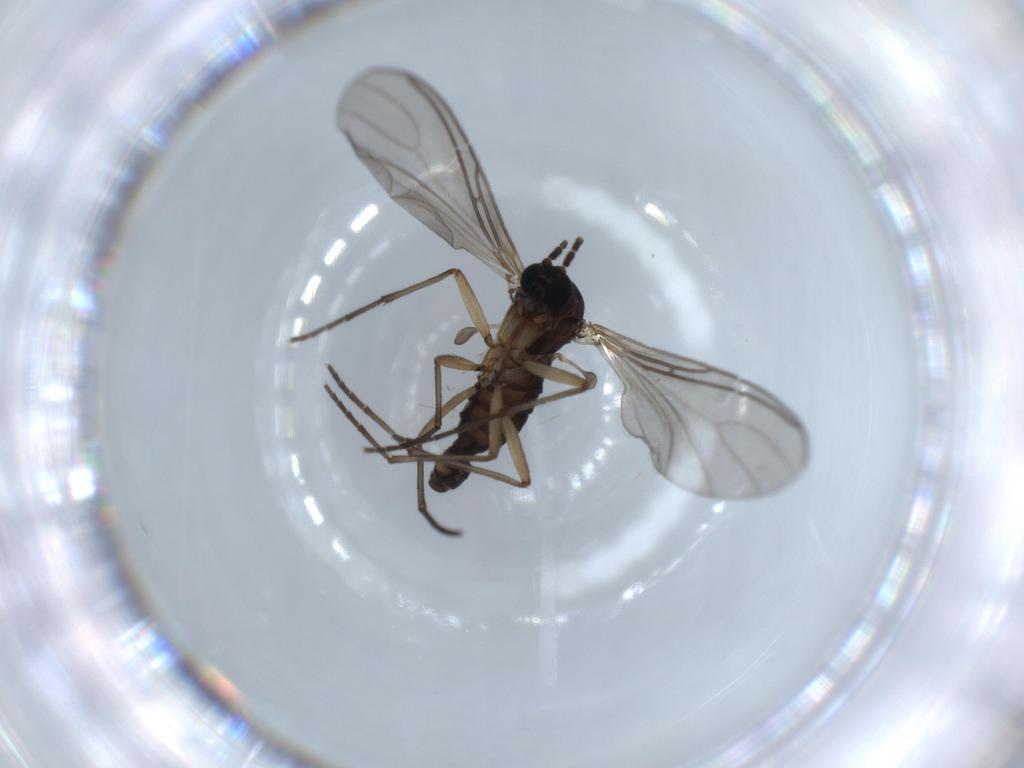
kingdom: Animalia
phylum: Arthropoda
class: Insecta
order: Diptera
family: Sciaridae
